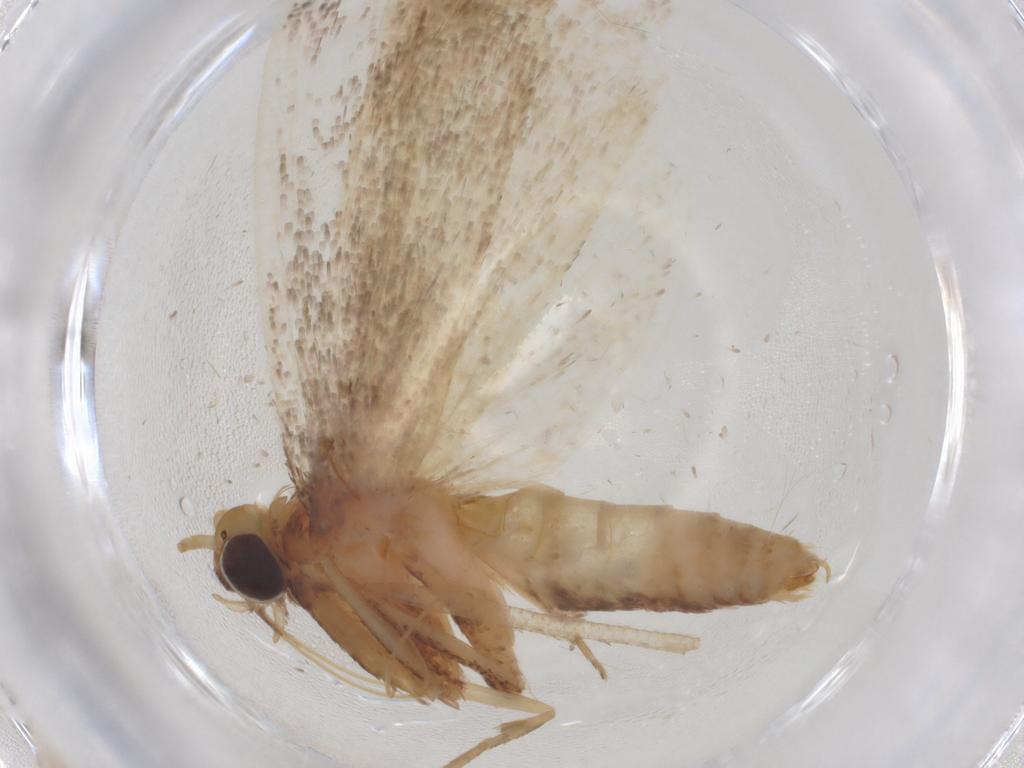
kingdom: Animalia
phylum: Arthropoda
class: Insecta
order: Lepidoptera
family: Pyralidae
